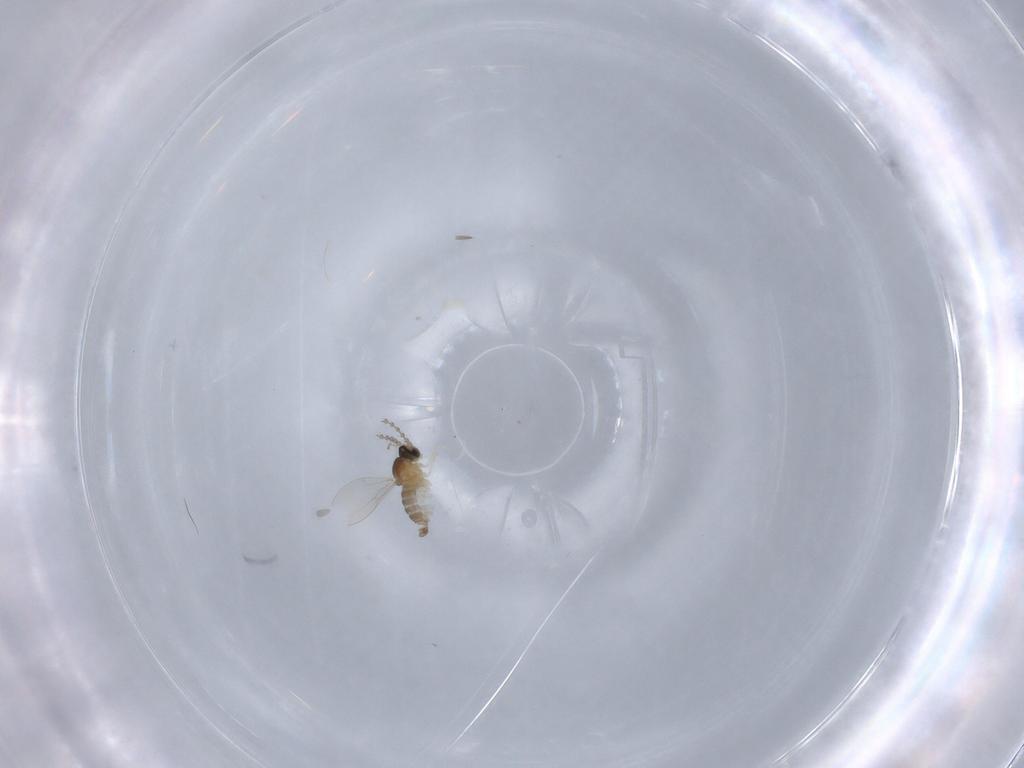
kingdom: Animalia
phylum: Arthropoda
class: Insecta
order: Diptera
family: Cecidomyiidae
